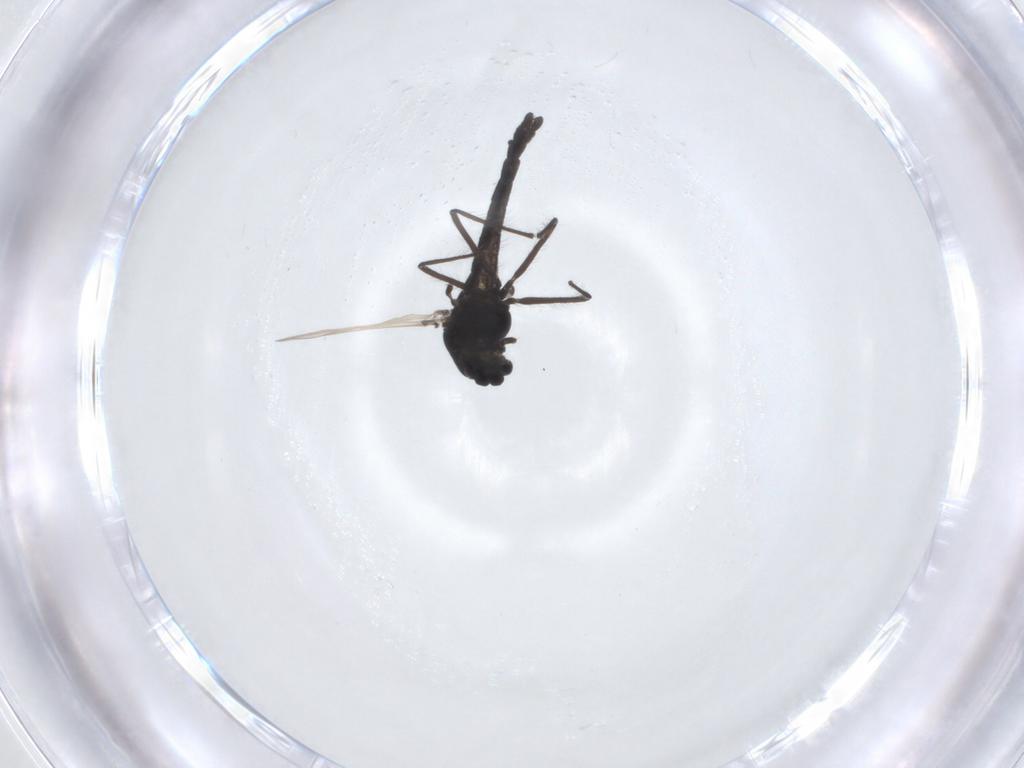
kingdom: Animalia
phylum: Arthropoda
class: Insecta
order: Diptera
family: Chironomidae
